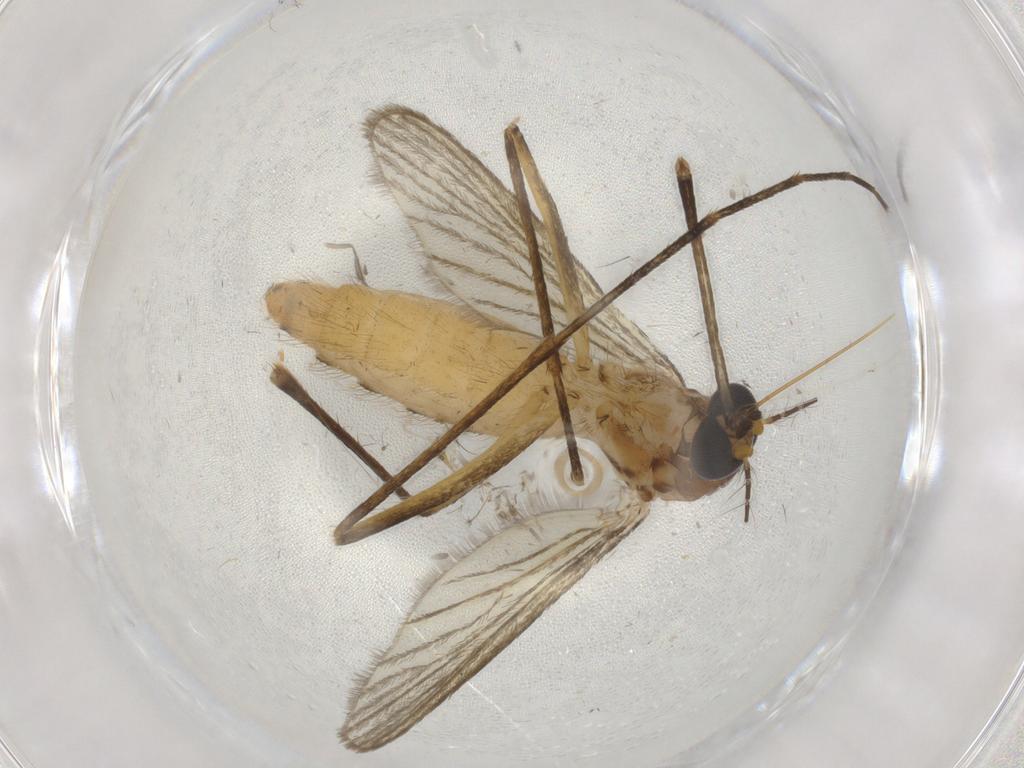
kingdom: Animalia
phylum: Arthropoda
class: Insecta
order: Diptera
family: Culicidae
